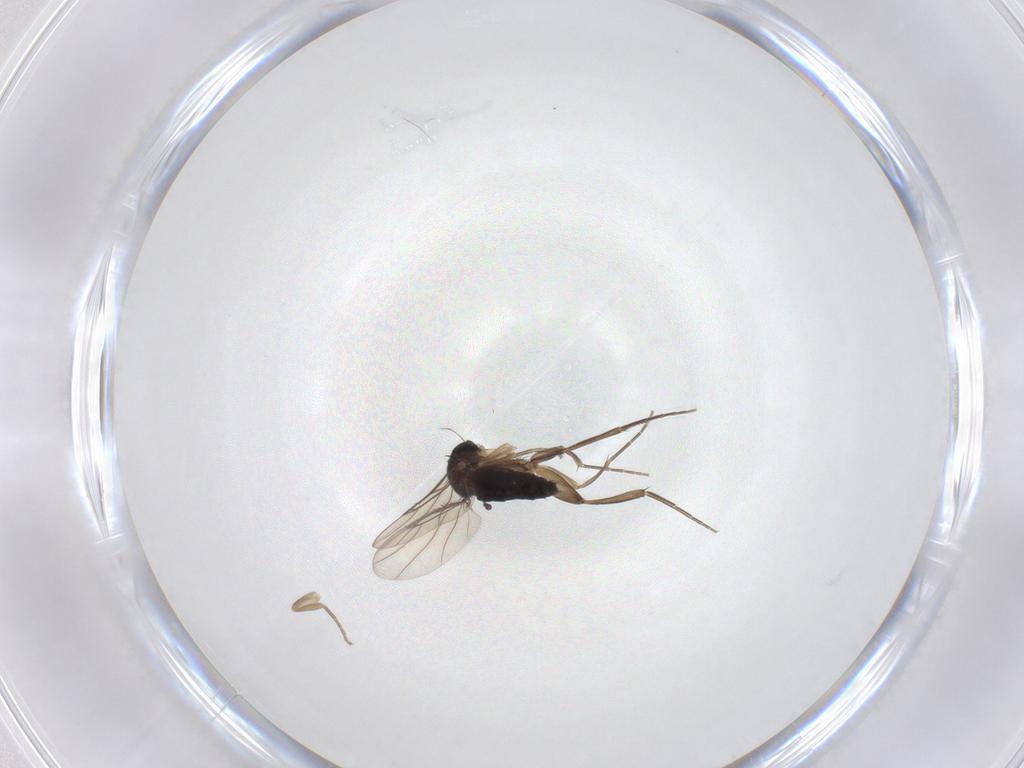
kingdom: Animalia
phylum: Arthropoda
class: Insecta
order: Diptera
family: Phoridae
